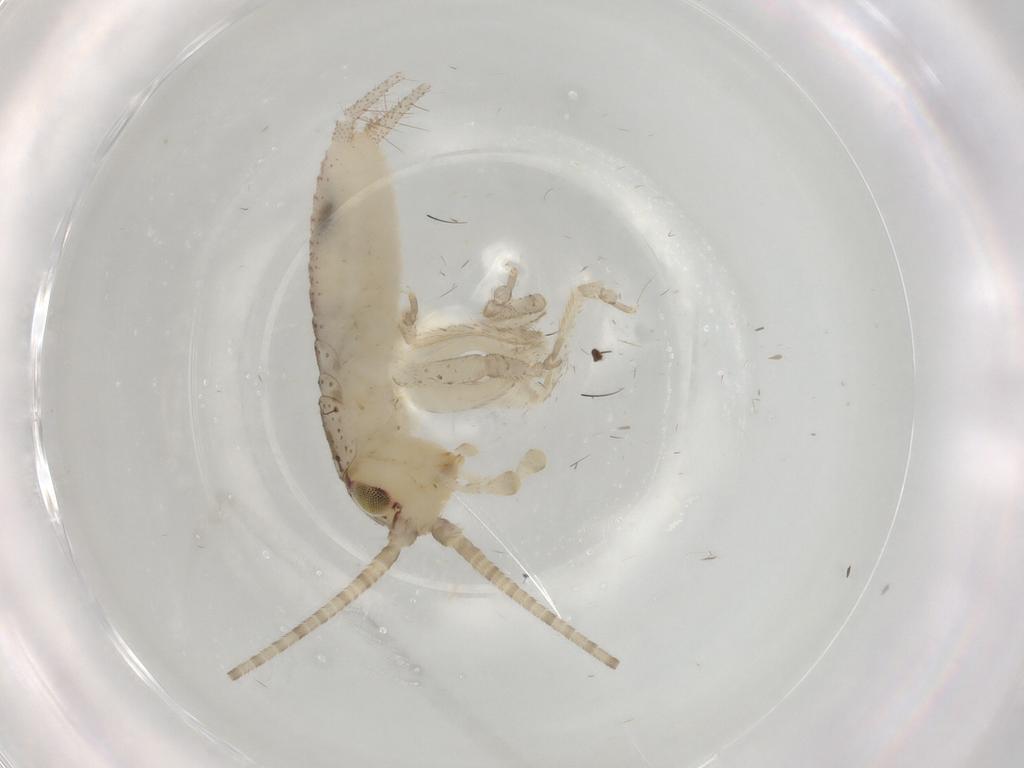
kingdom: Animalia
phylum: Arthropoda
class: Insecta
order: Orthoptera
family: Gryllidae
